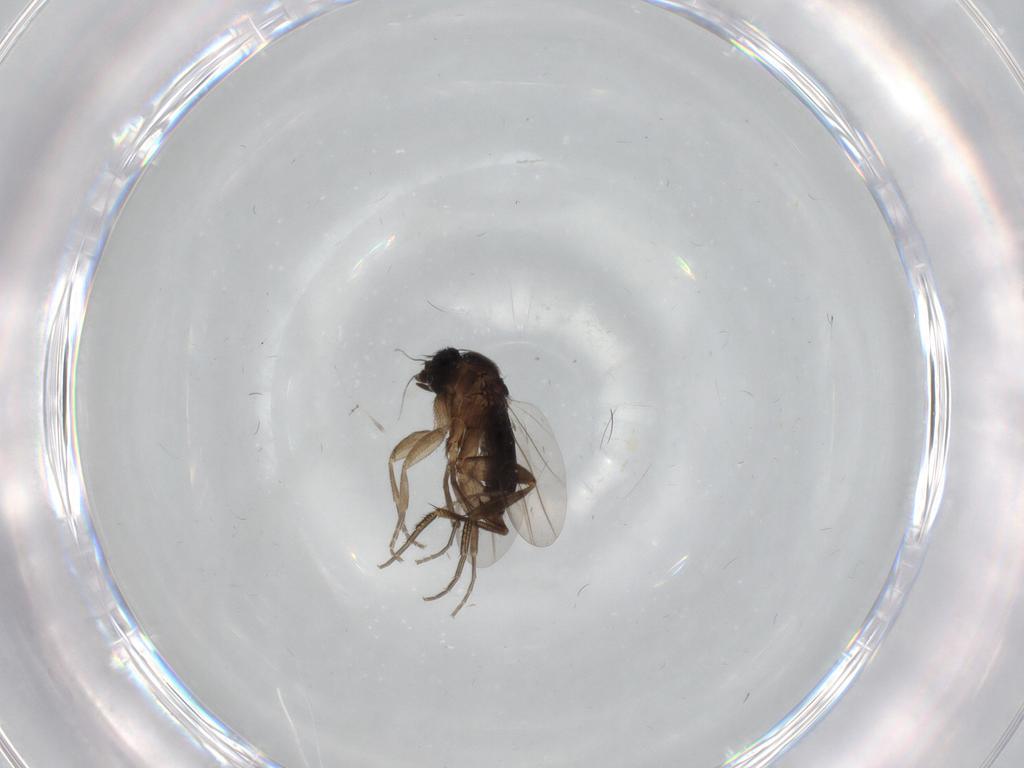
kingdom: Animalia
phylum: Arthropoda
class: Insecta
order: Diptera
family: Phoridae
